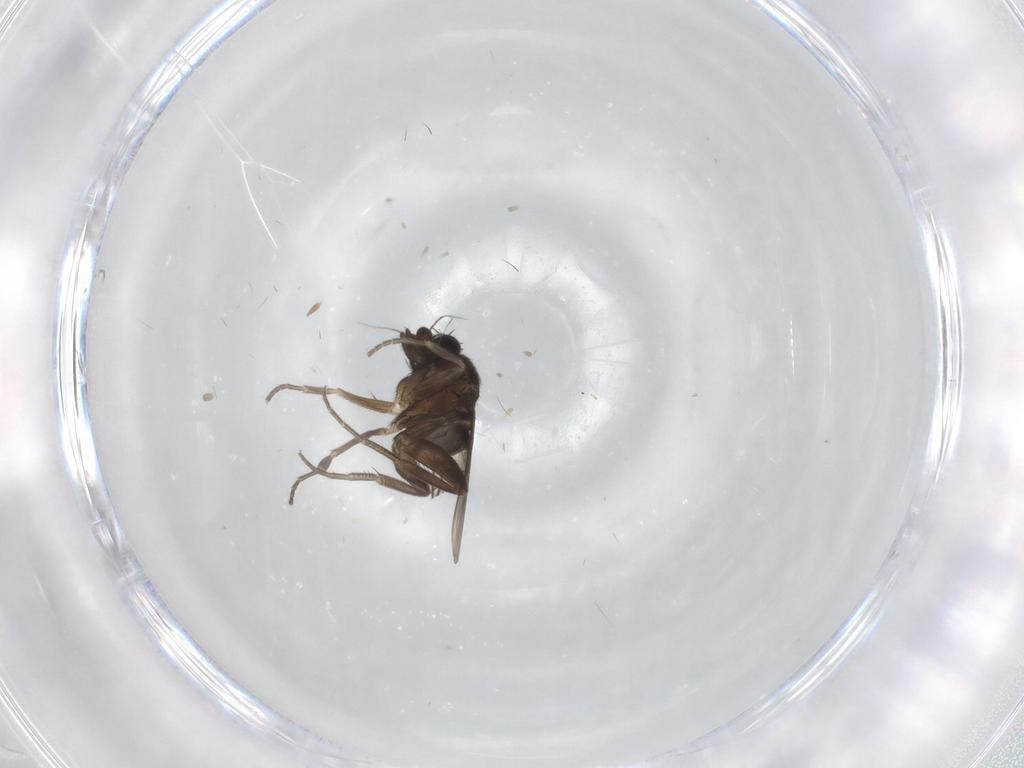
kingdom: Animalia
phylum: Arthropoda
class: Insecta
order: Diptera
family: Phoridae
